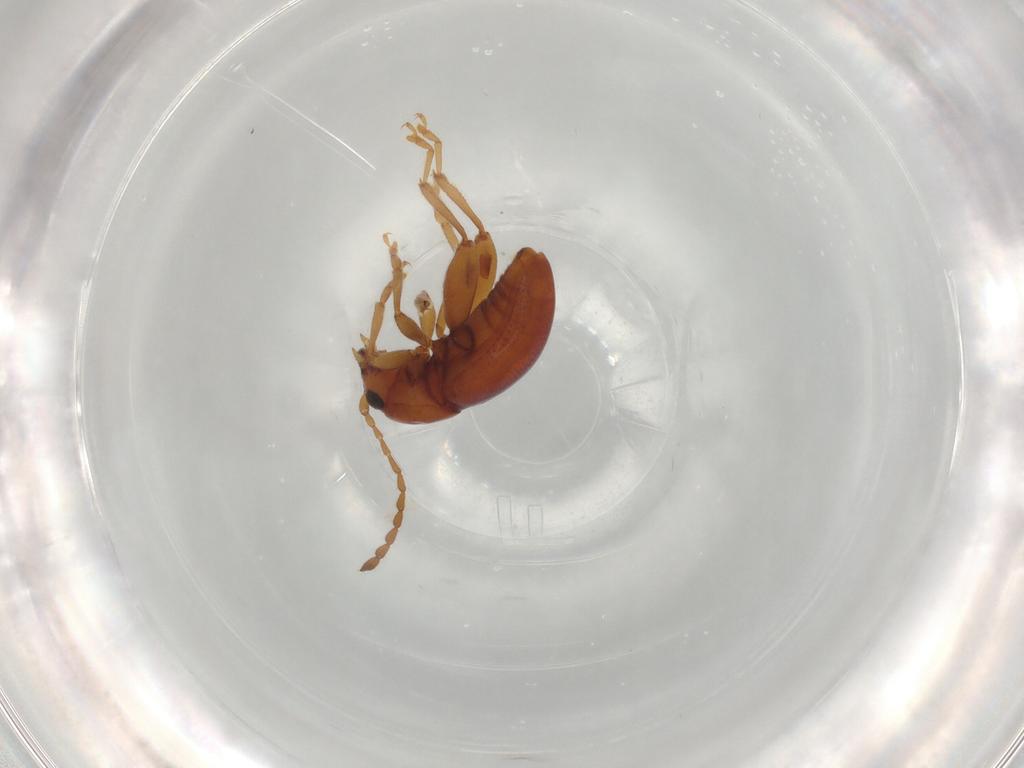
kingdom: Animalia
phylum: Arthropoda
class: Insecta
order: Coleoptera
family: Chrysomelidae
